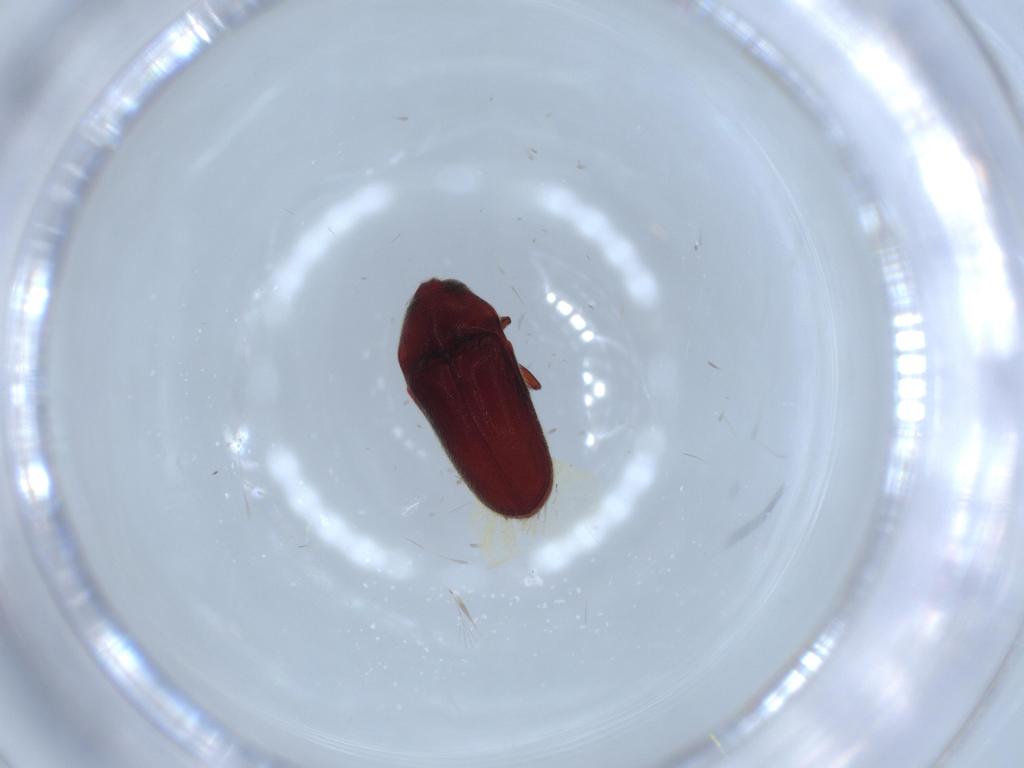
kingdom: Animalia
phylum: Arthropoda
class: Insecta
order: Coleoptera
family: Throscidae
